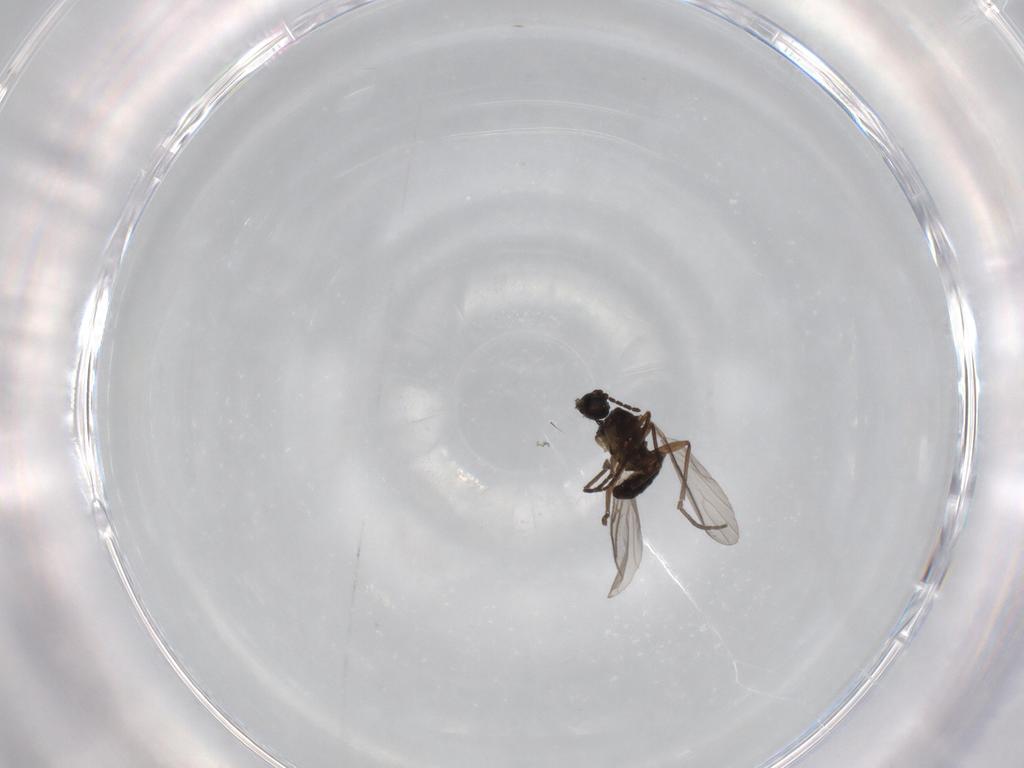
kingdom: Animalia
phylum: Arthropoda
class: Insecta
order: Diptera
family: Sciaridae
